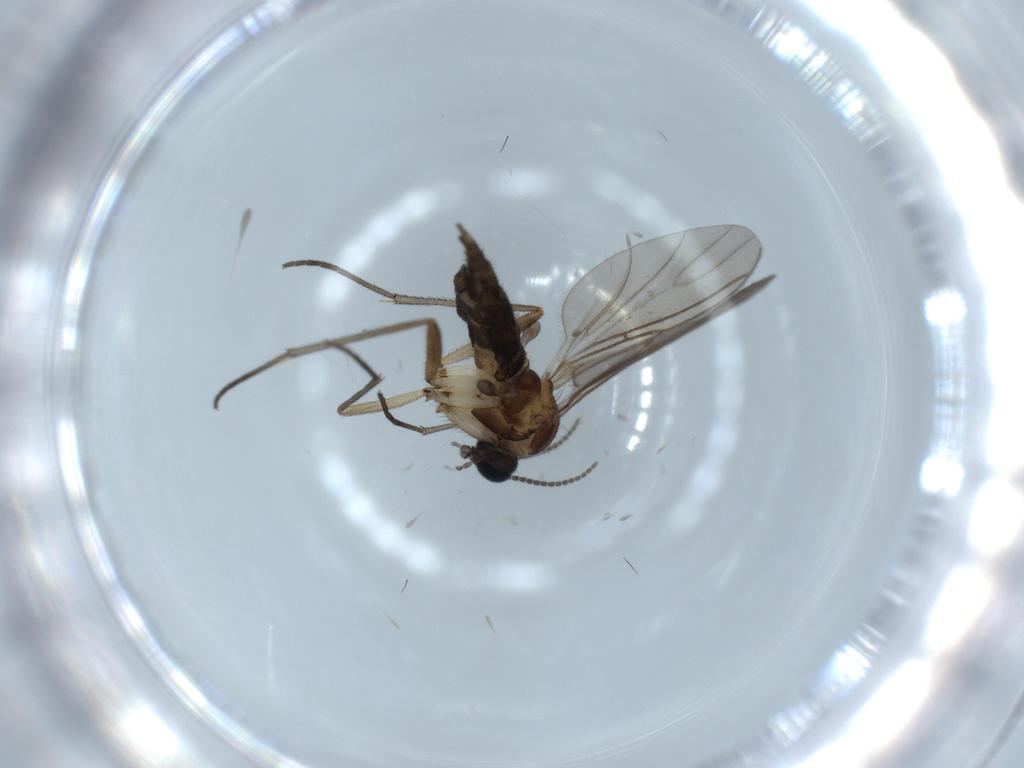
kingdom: Animalia
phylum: Arthropoda
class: Insecta
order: Diptera
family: Sciaridae
